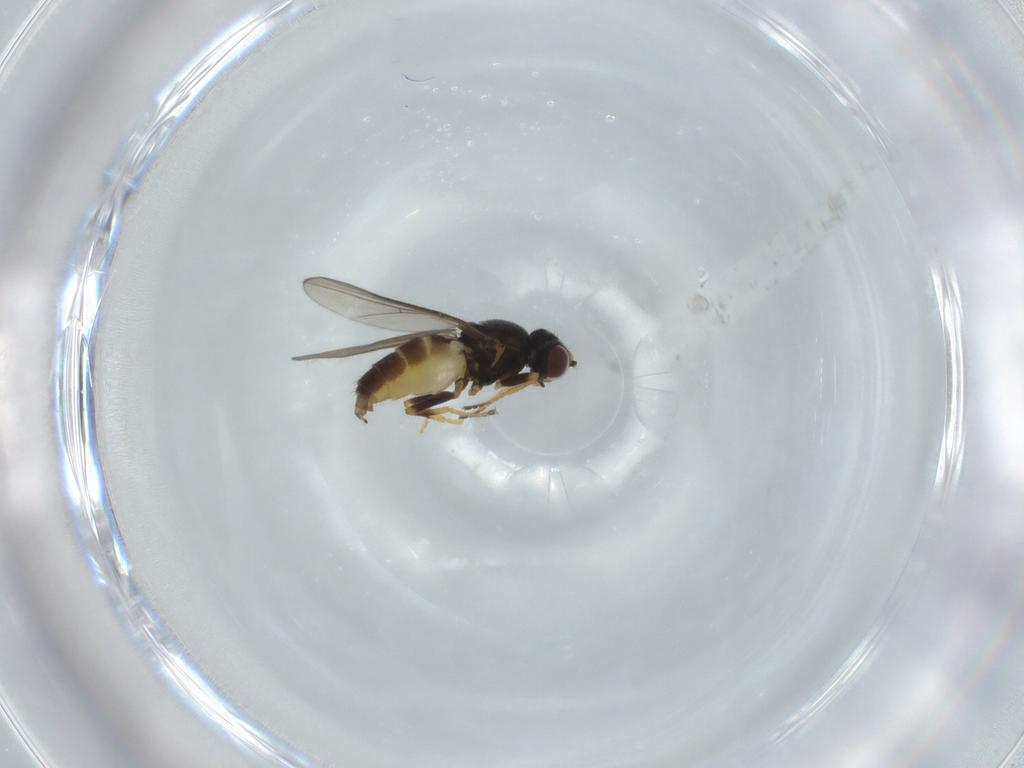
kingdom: Animalia
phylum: Arthropoda
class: Insecta
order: Diptera
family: Chloropidae
